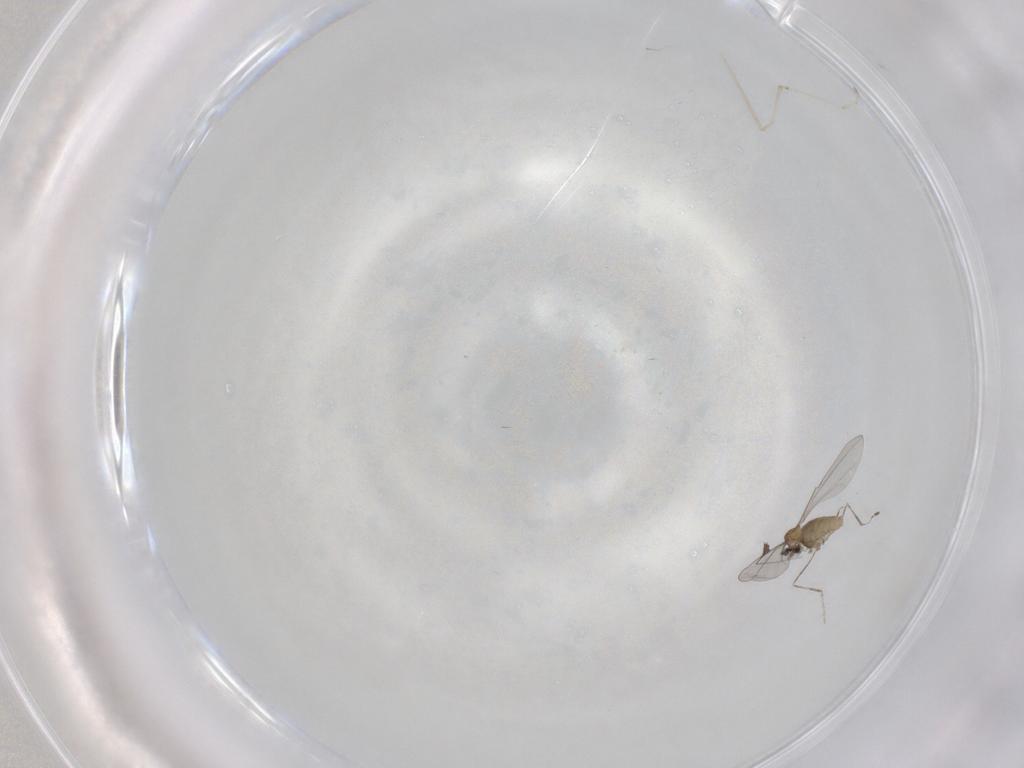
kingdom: Animalia
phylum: Arthropoda
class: Insecta
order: Diptera
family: Cecidomyiidae
